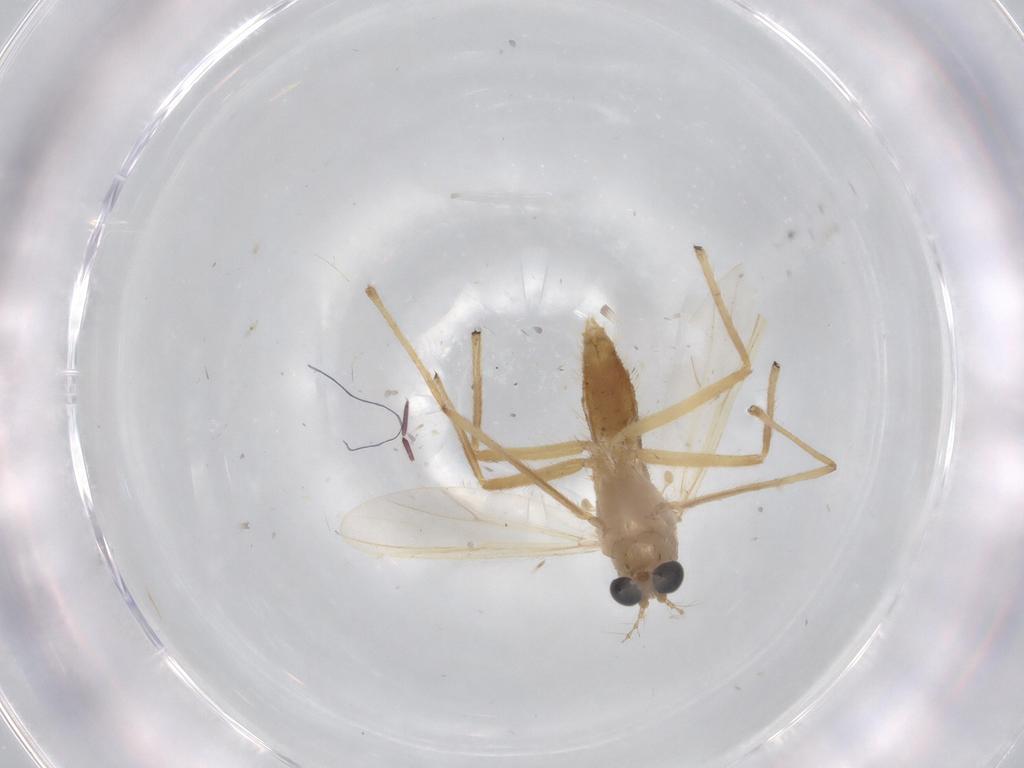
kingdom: Animalia
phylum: Arthropoda
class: Insecta
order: Diptera
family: Chironomidae
